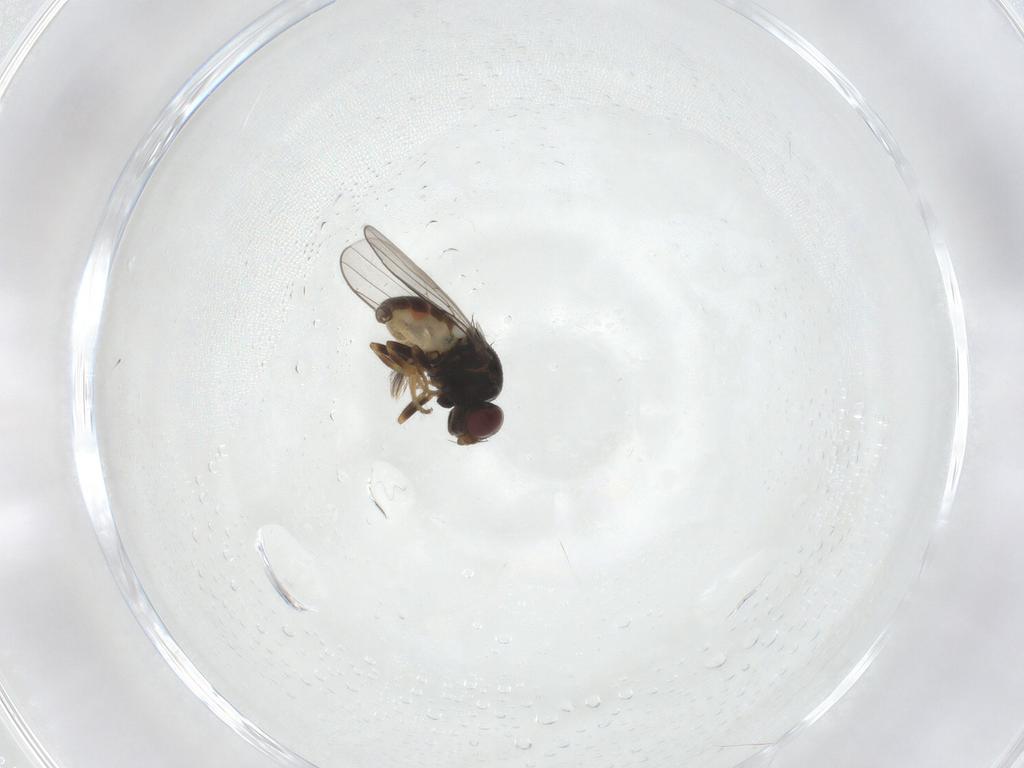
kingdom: Animalia
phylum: Arthropoda
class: Insecta
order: Diptera
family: Chloropidae
